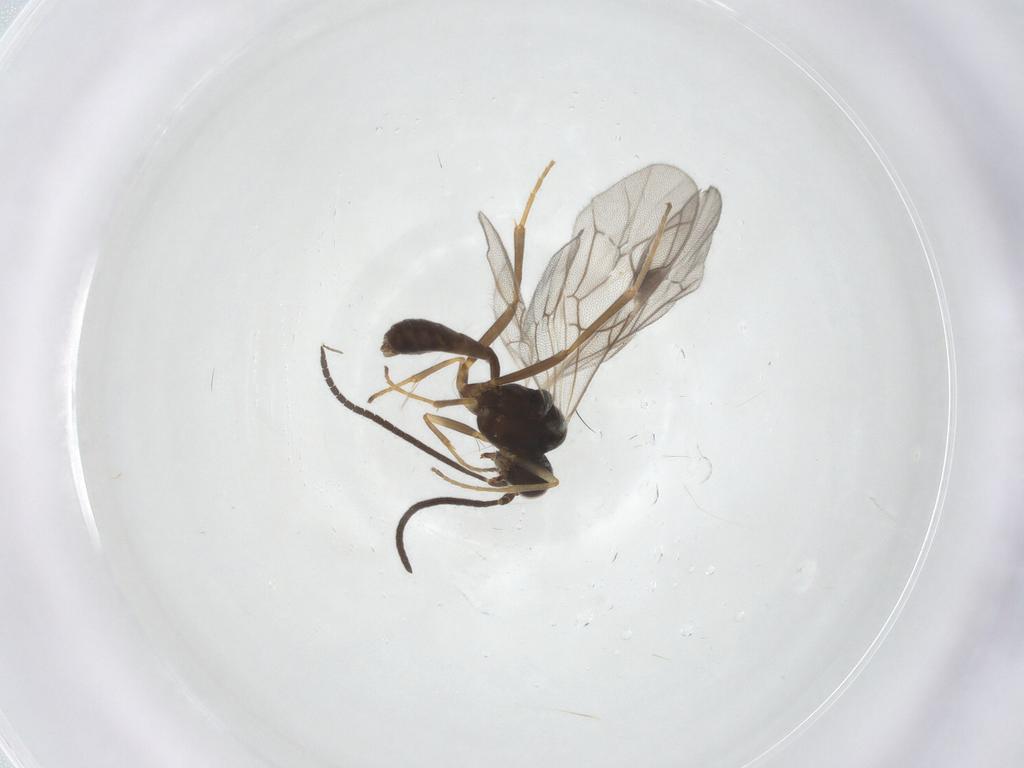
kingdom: Animalia
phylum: Arthropoda
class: Insecta
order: Hymenoptera
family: Ichneumonidae
